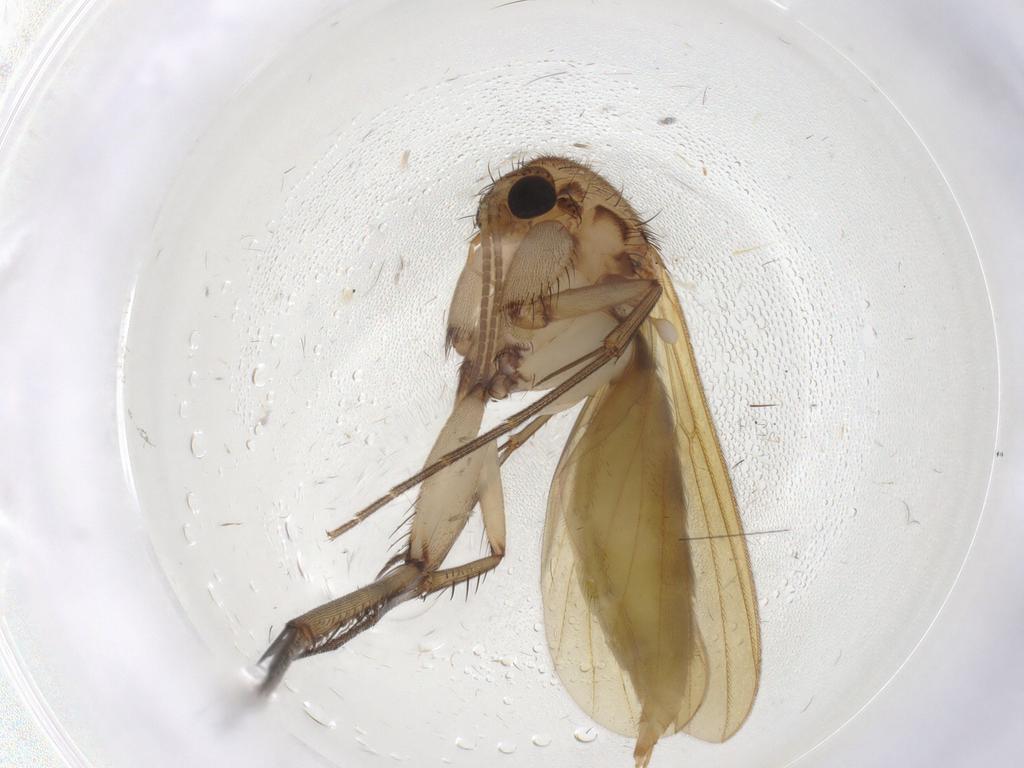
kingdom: Animalia
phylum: Arthropoda
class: Insecta
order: Diptera
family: Mycetophilidae
